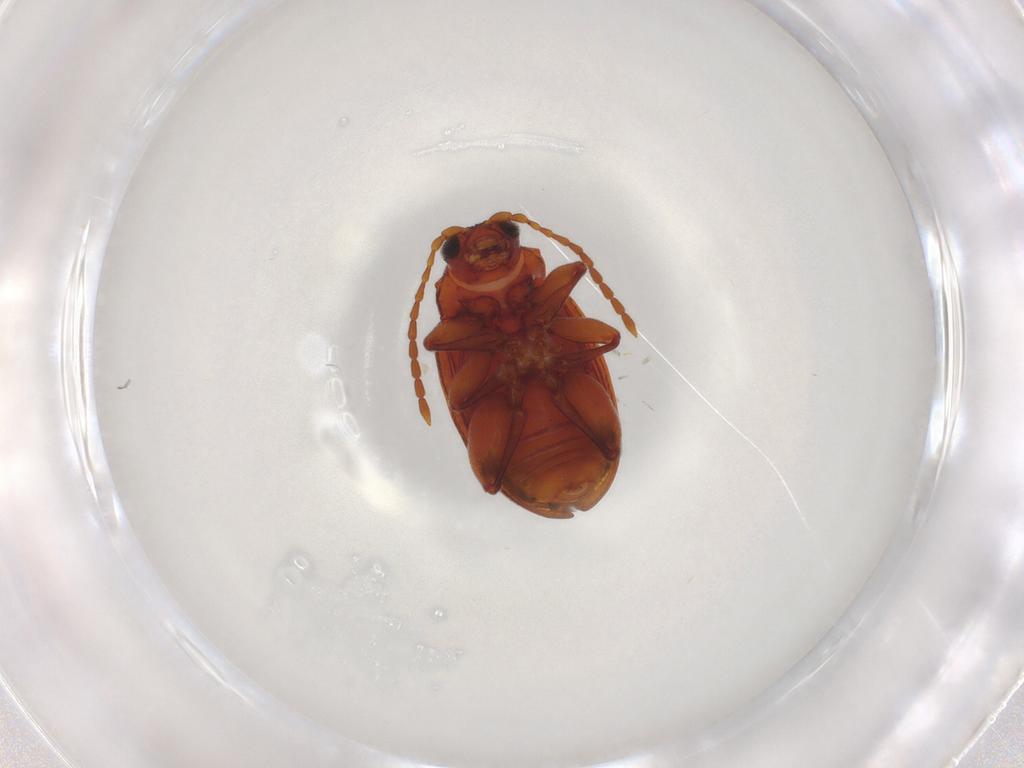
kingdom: Animalia
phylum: Arthropoda
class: Insecta
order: Coleoptera
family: Chrysomelidae
